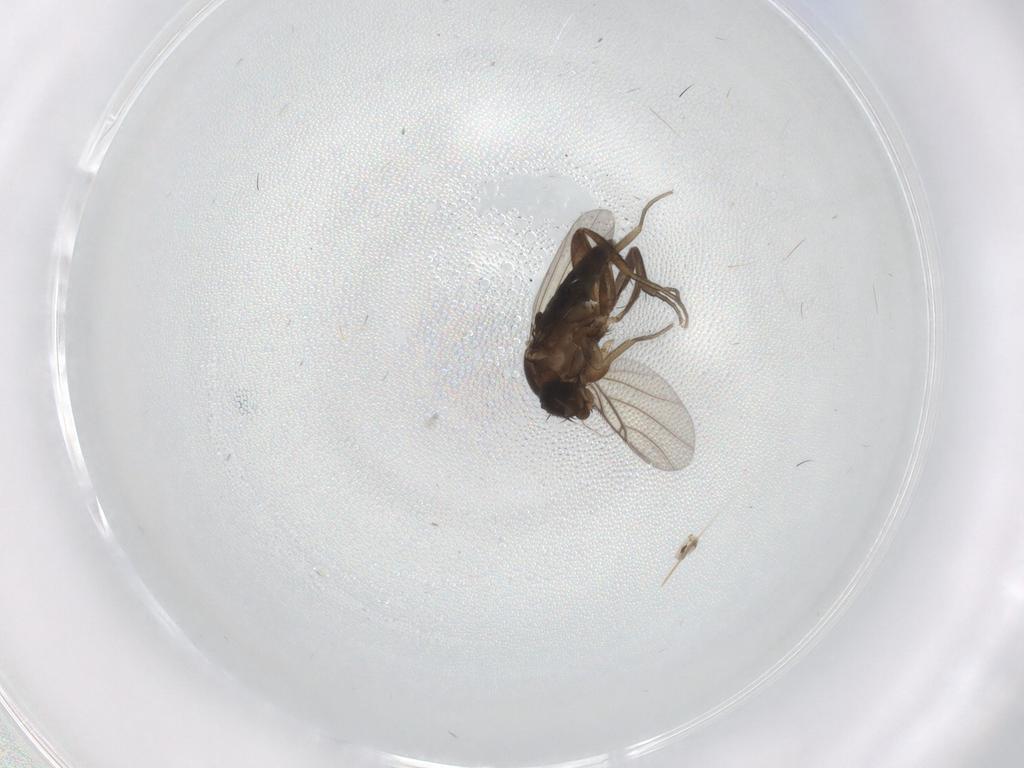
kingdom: Animalia
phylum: Arthropoda
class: Insecta
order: Diptera
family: Phoridae
